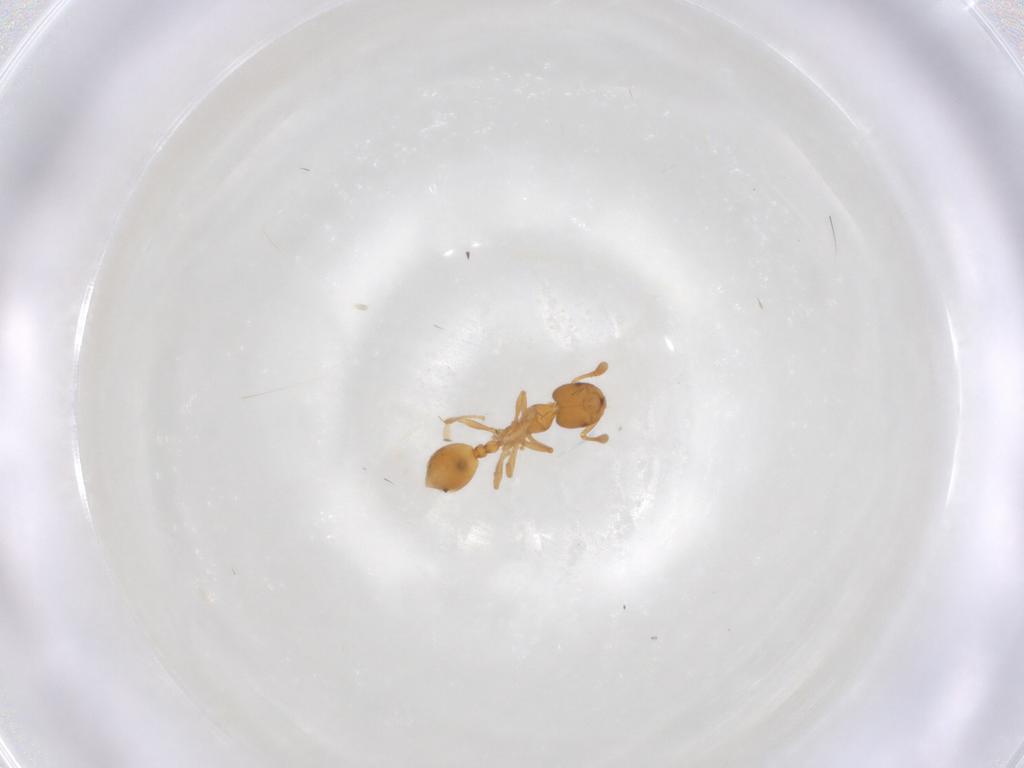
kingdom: Animalia
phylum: Arthropoda
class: Insecta
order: Hymenoptera
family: Formicidae
